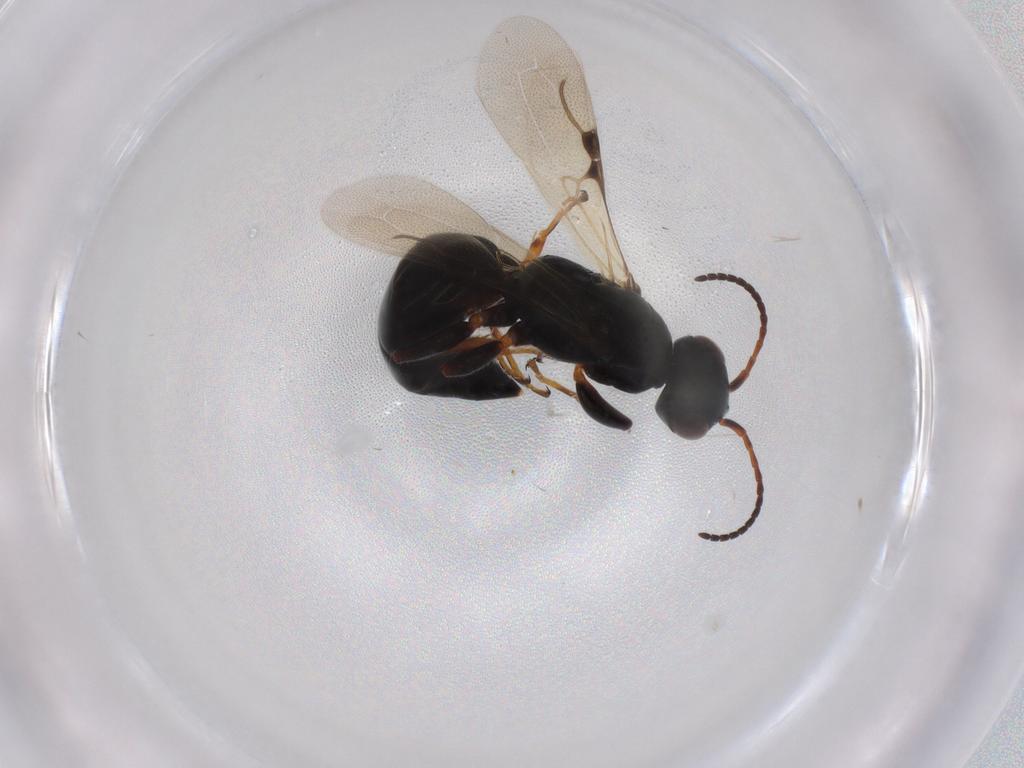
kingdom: Animalia
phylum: Arthropoda
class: Insecta
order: Hymenoptera
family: Bethylidae
